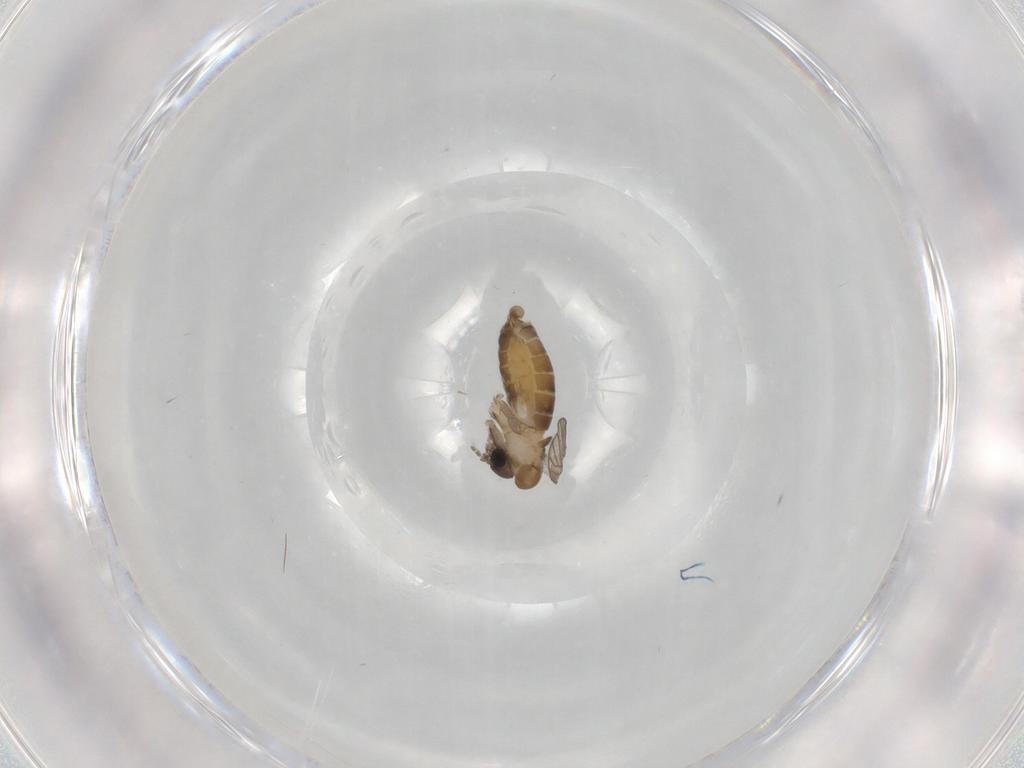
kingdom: Animalia
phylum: Arthropoda
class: Insecta
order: Diptera
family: Psychodidae
